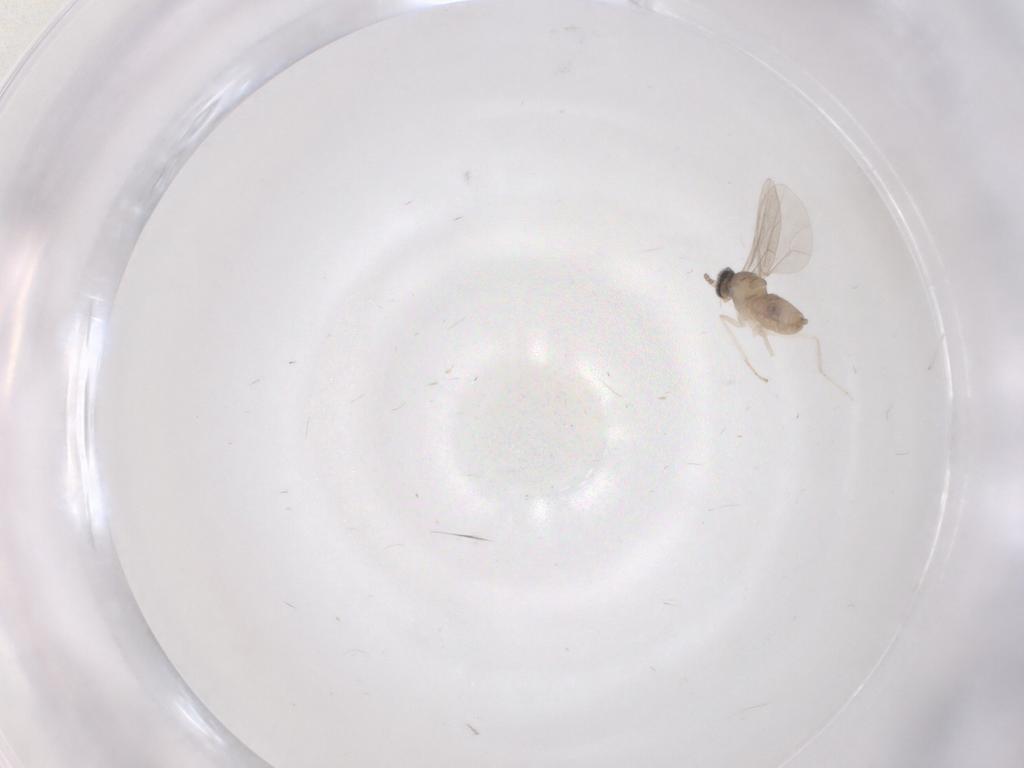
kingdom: Animalia
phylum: Arthropoda
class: Insecta
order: Diptera
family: Cecidomyiidae
